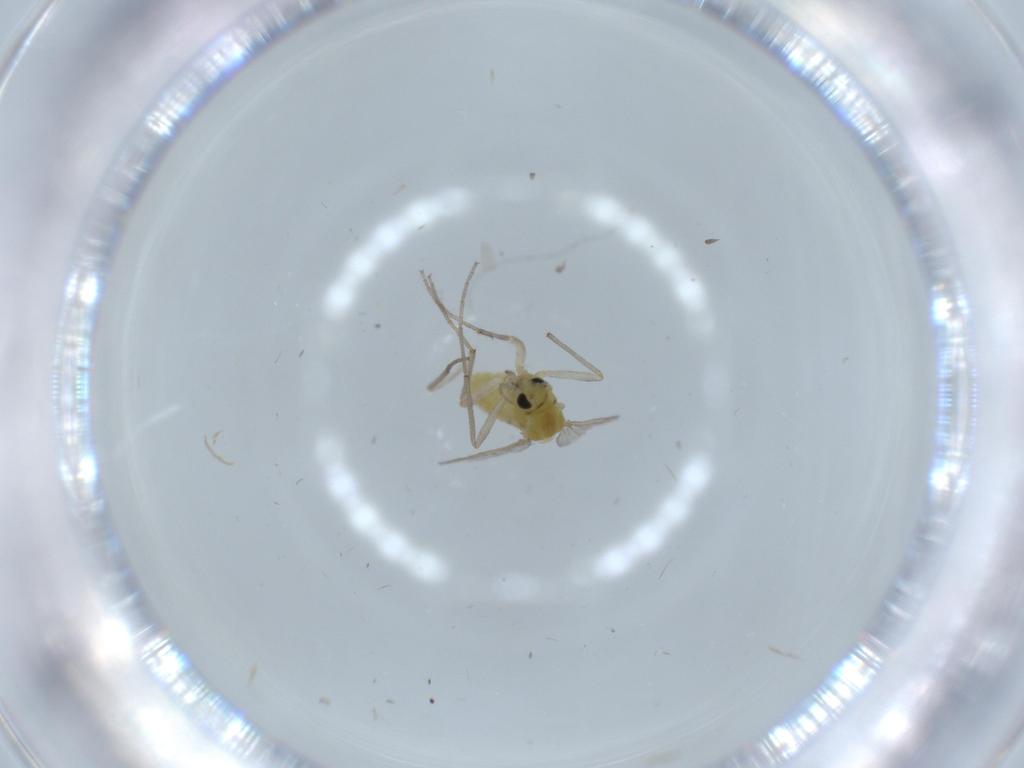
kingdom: Animalia
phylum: Arthropoda
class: Insecta
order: Diptera
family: Chironomidae
